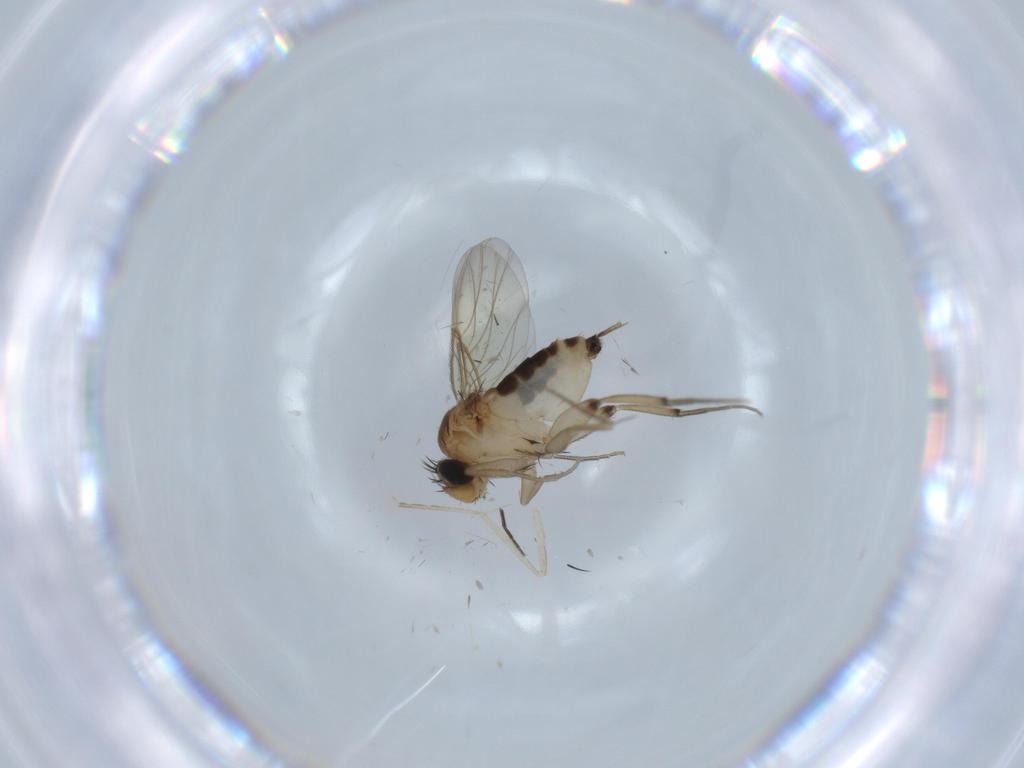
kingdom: Animalia
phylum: Arthropoda
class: Insecta
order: Diptera
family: Cecidomyiidae
